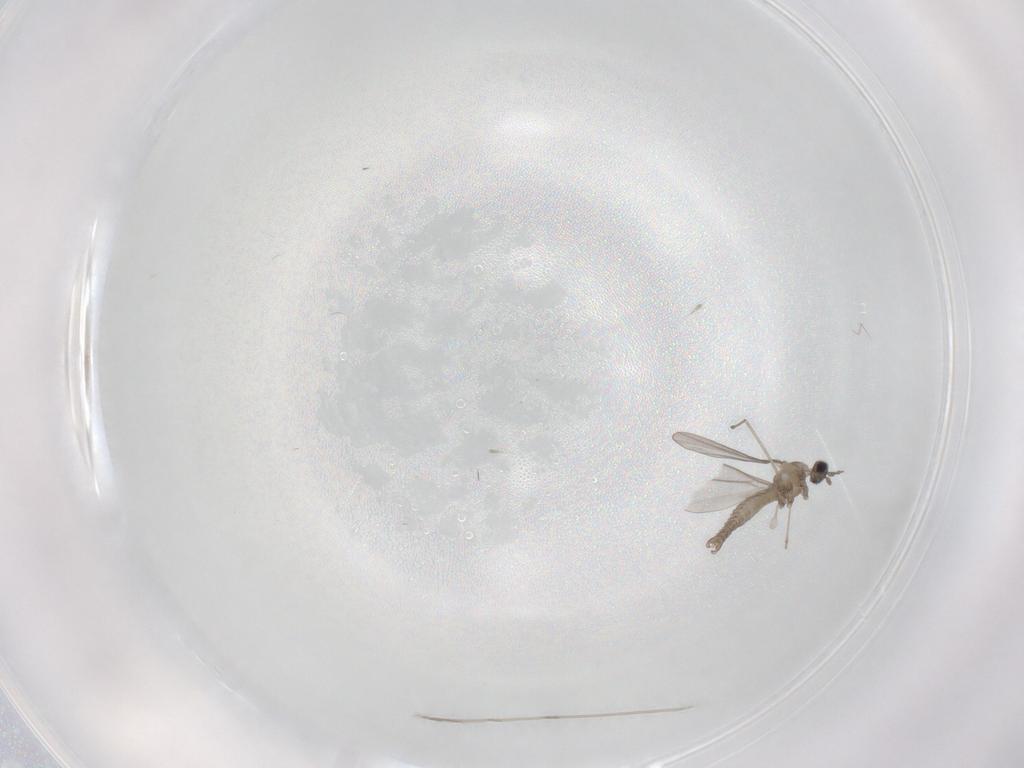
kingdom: Animalia
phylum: Arthropoda
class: Insecta
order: Diptera
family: Cecidomyiidae
